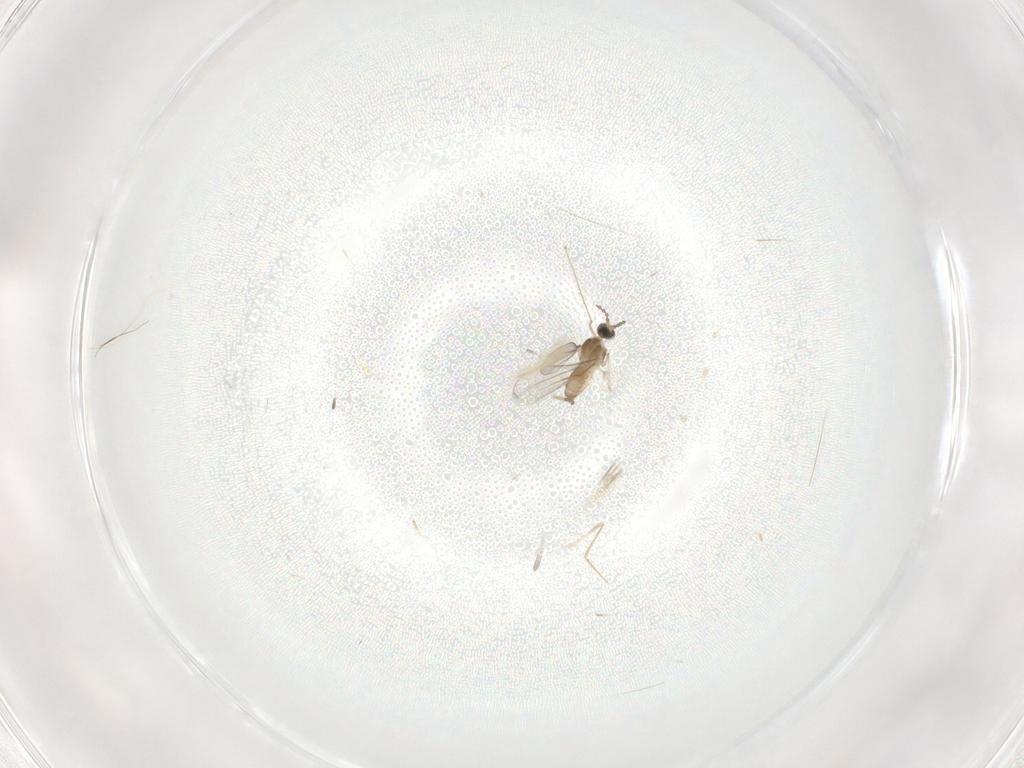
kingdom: Animalia
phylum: Arthropoda
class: Insecta
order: Diptera
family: Cecidomyiidae
